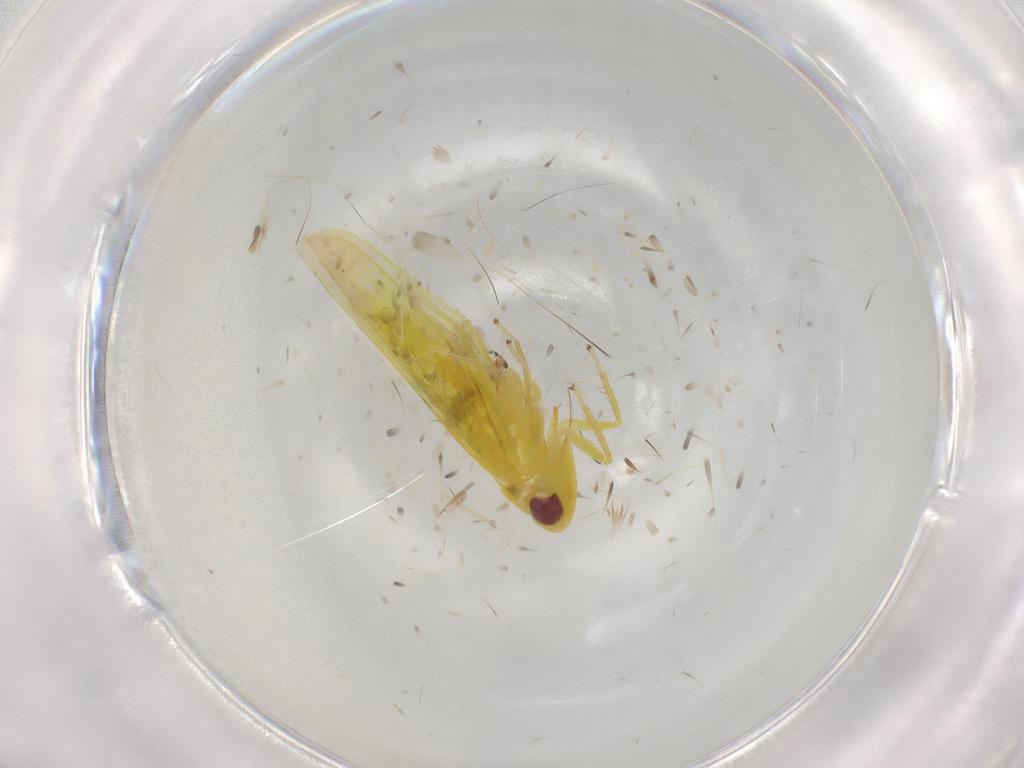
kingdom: Animalia
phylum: Arthropoda
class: Insecta
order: Hemiptera
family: Cicadellidae
